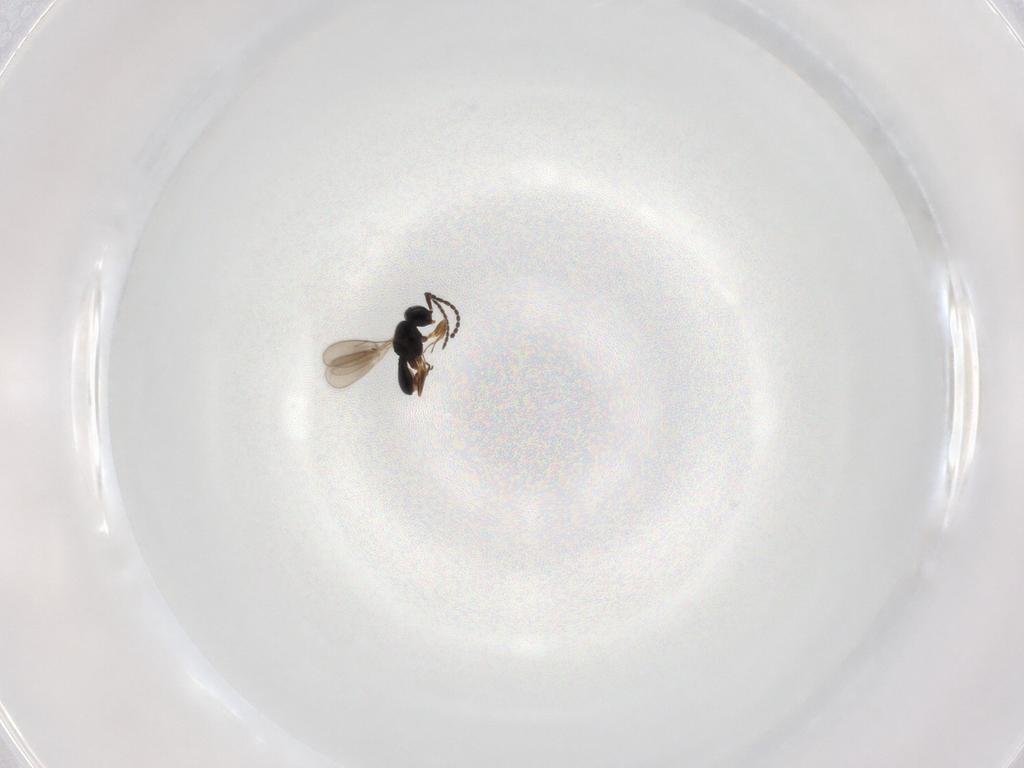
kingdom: Animalia
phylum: Arthropoda
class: Insecta
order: Hymenoptera
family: Scelionidae
